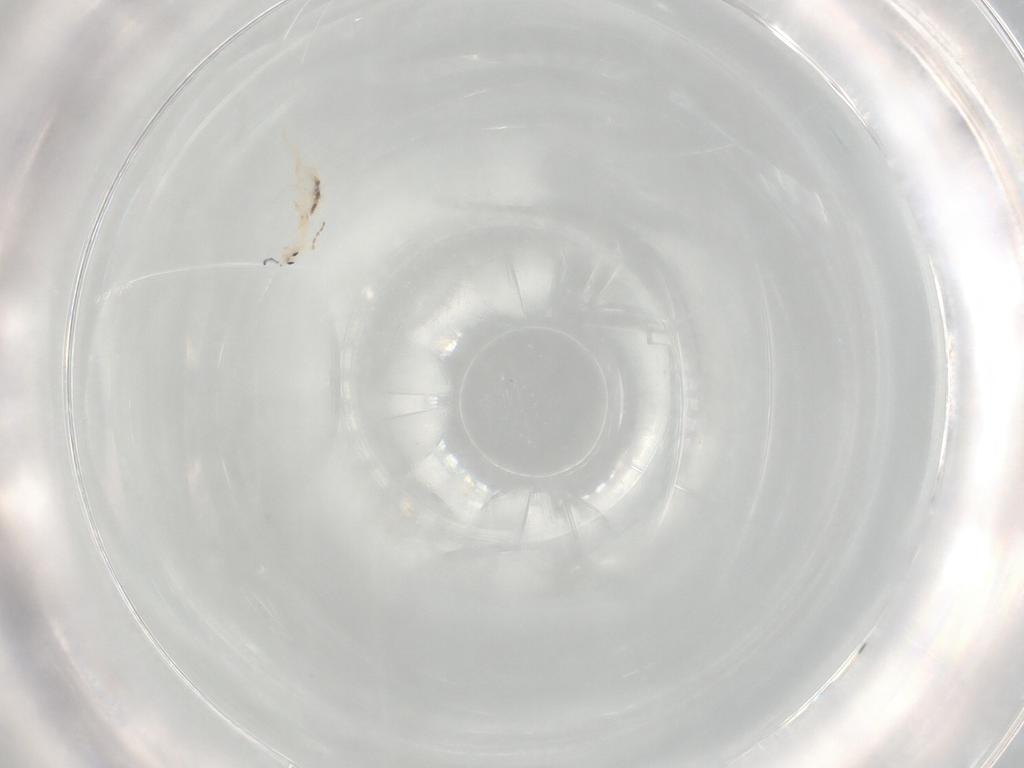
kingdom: Animalia
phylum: Arthropoda
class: Collembola
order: Entomobryomorpha
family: Entomobryidae
